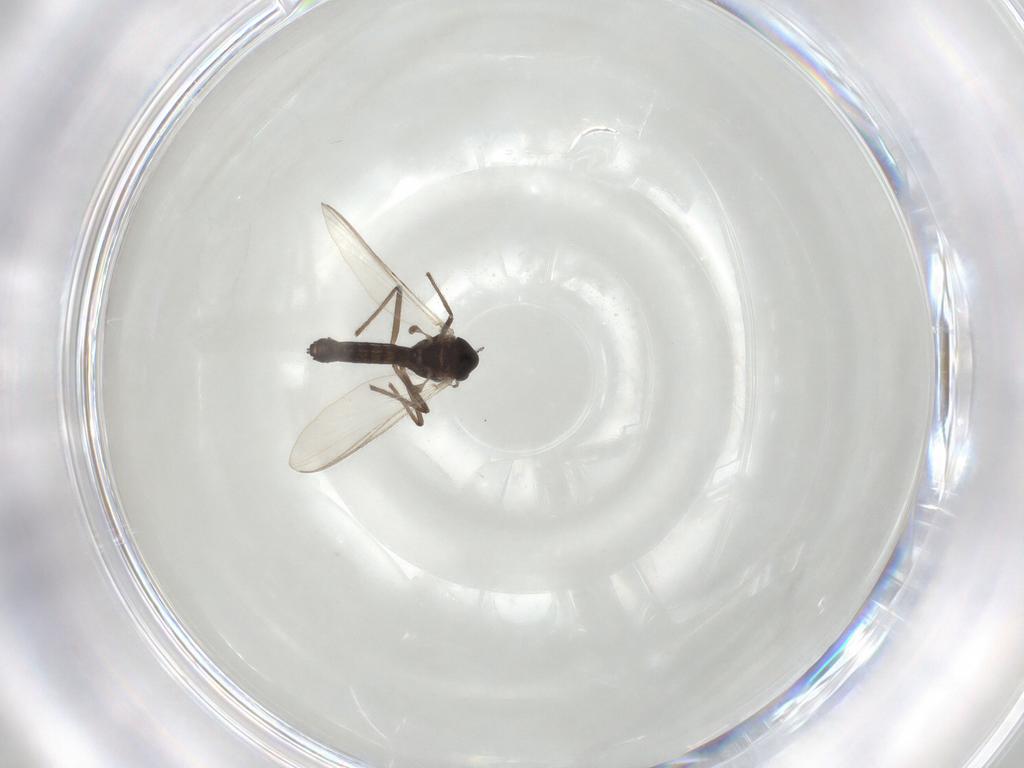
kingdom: Animalia
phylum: Arthropoda
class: Insecta
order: Diptera
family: Chironomidae
